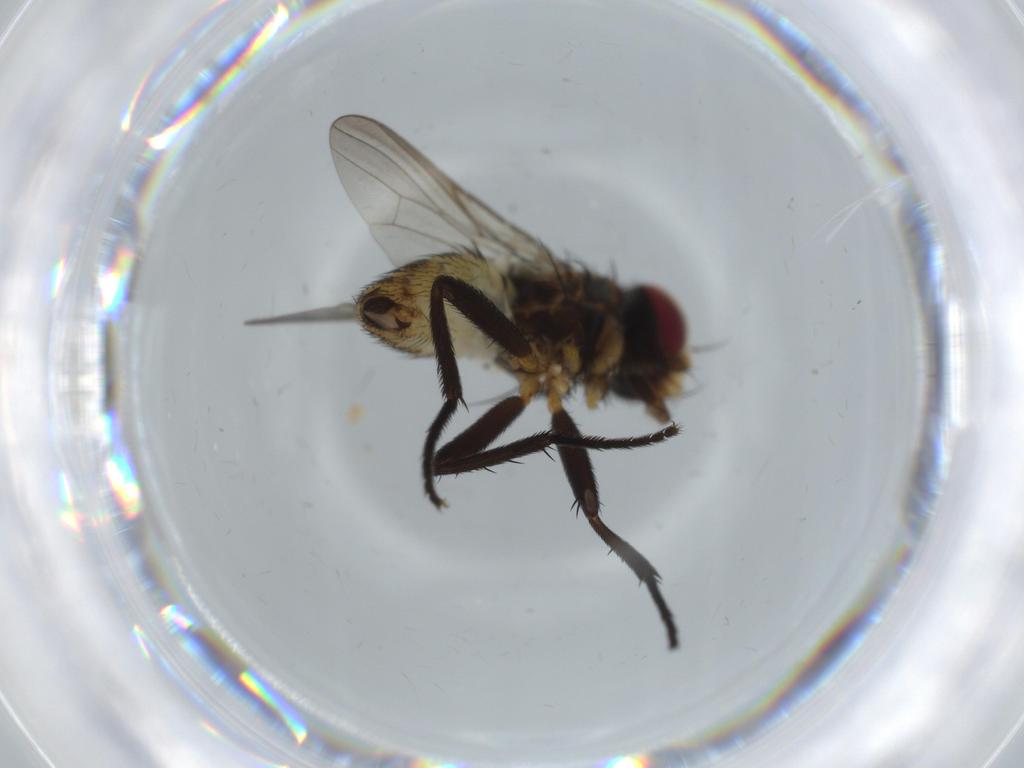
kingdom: Animalia
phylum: Arthropoda
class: Insecta
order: Diptera
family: Anthomyiidae
